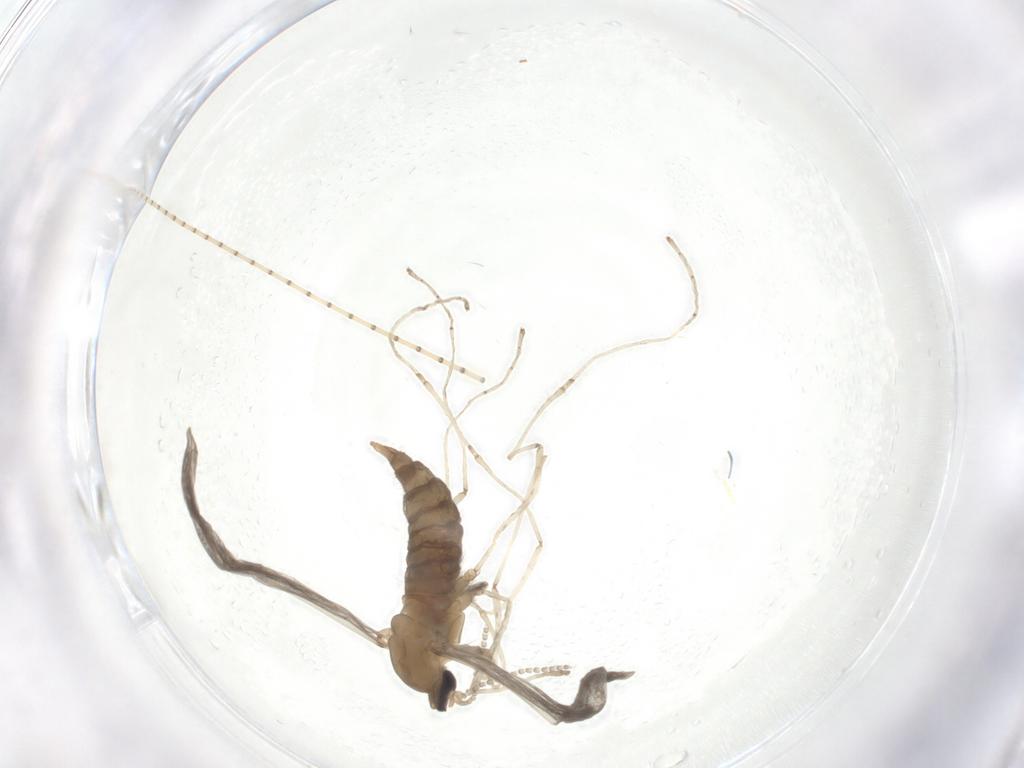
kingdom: Animalia
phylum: Arthropoda
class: Insecta
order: Diptera
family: Cecidomyiidae
